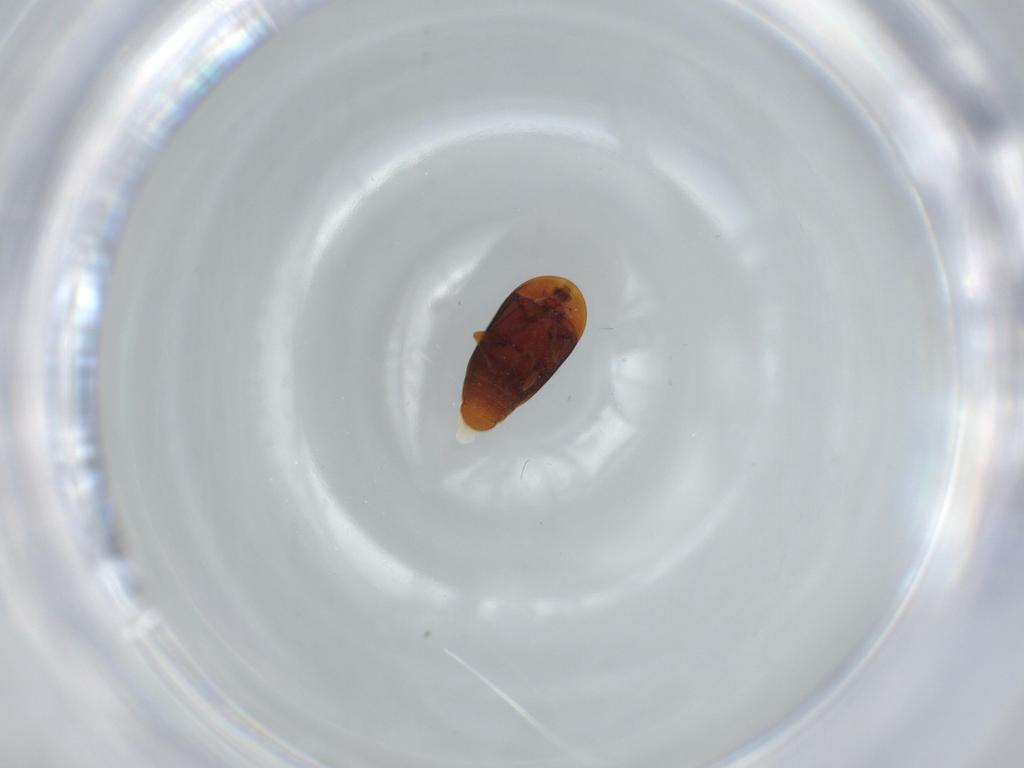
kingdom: Animalia
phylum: Arthropoda
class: Insecta
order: Coleoptera
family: Corylophidae
